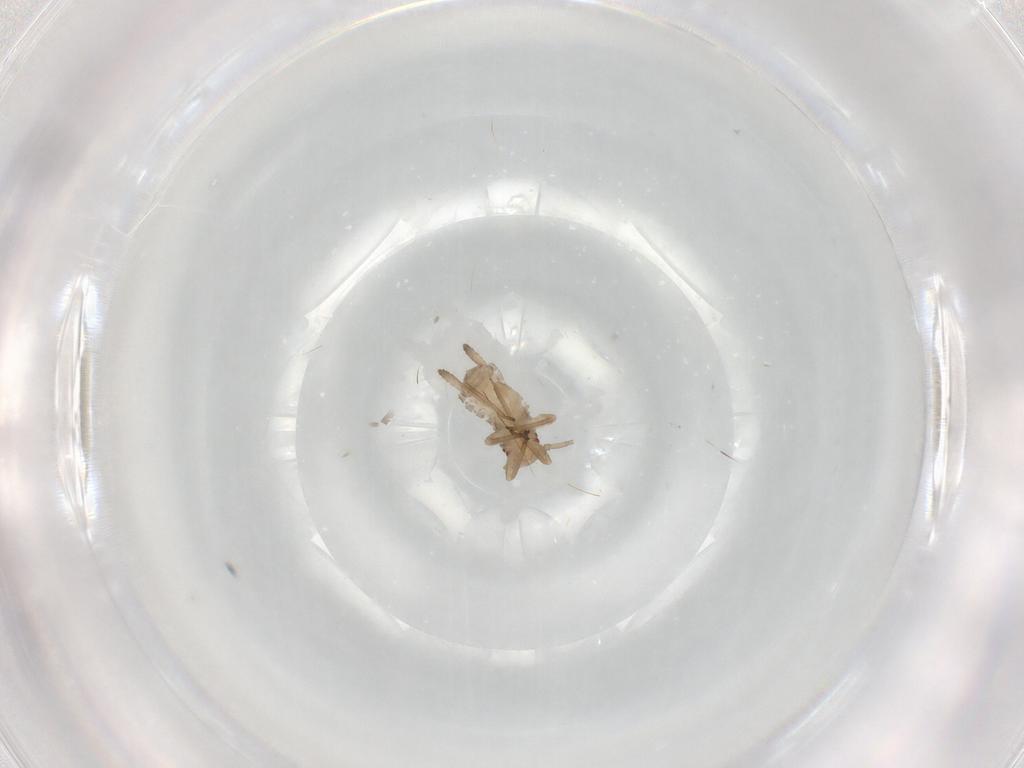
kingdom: Animalia
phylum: Arthropoda
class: Insecta
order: Hemiptera
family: Aphididae
